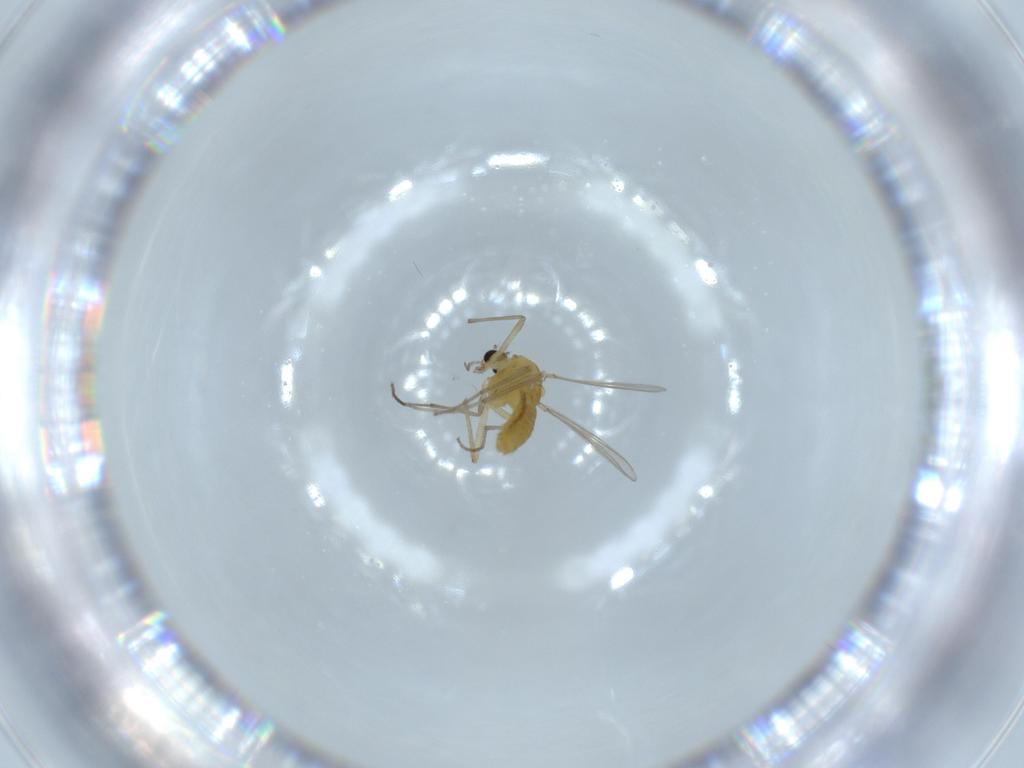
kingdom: Animalia
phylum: Arthropoda
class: Insecta
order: Diptera
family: Chironomidae
